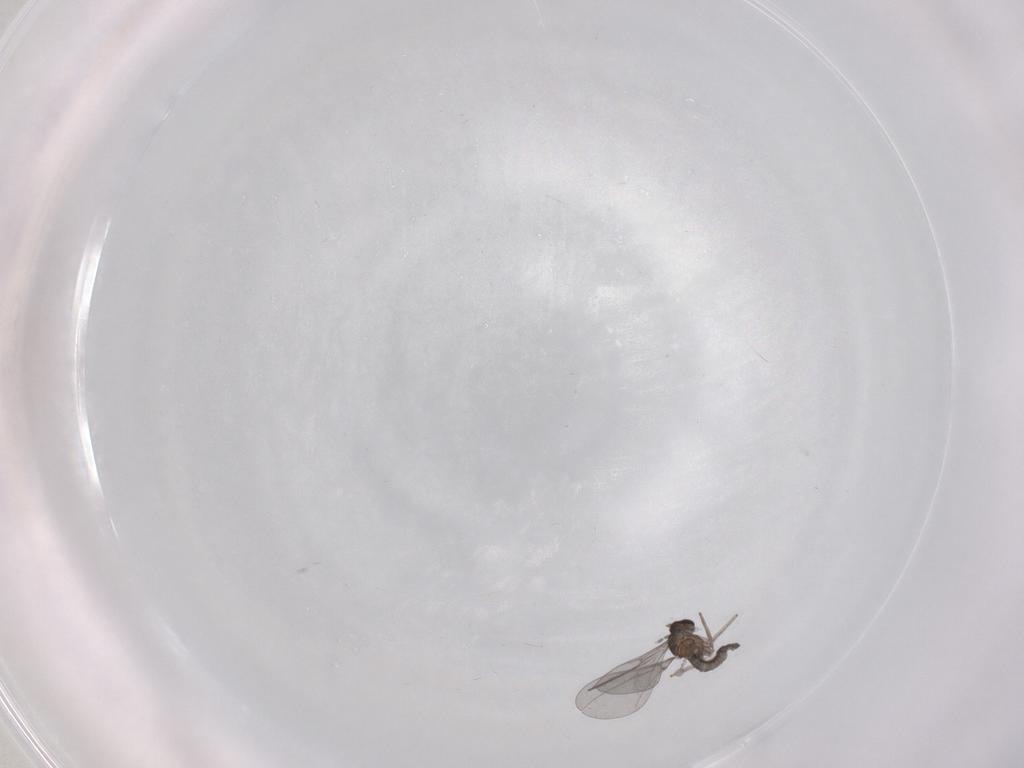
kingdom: Animalia
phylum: Arthropoda
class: Insecta
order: Diptera
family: Cecidomyiidae
